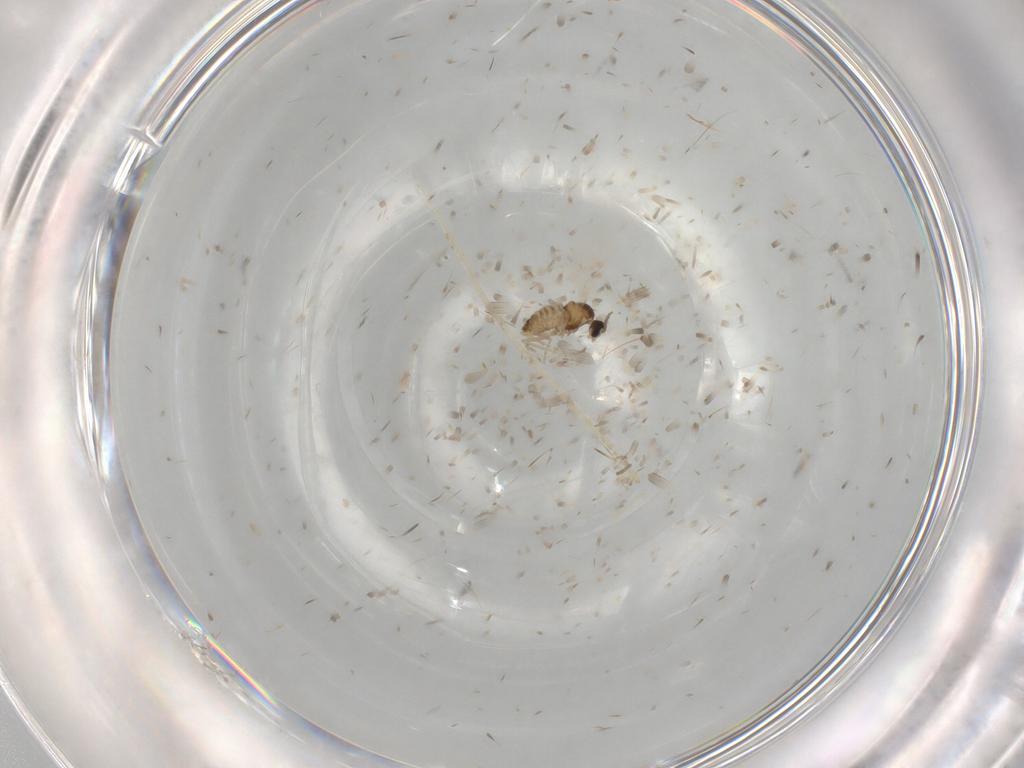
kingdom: Animalia
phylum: Arthropoda
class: Insecta
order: Diptera
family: Cecidomyiidae
